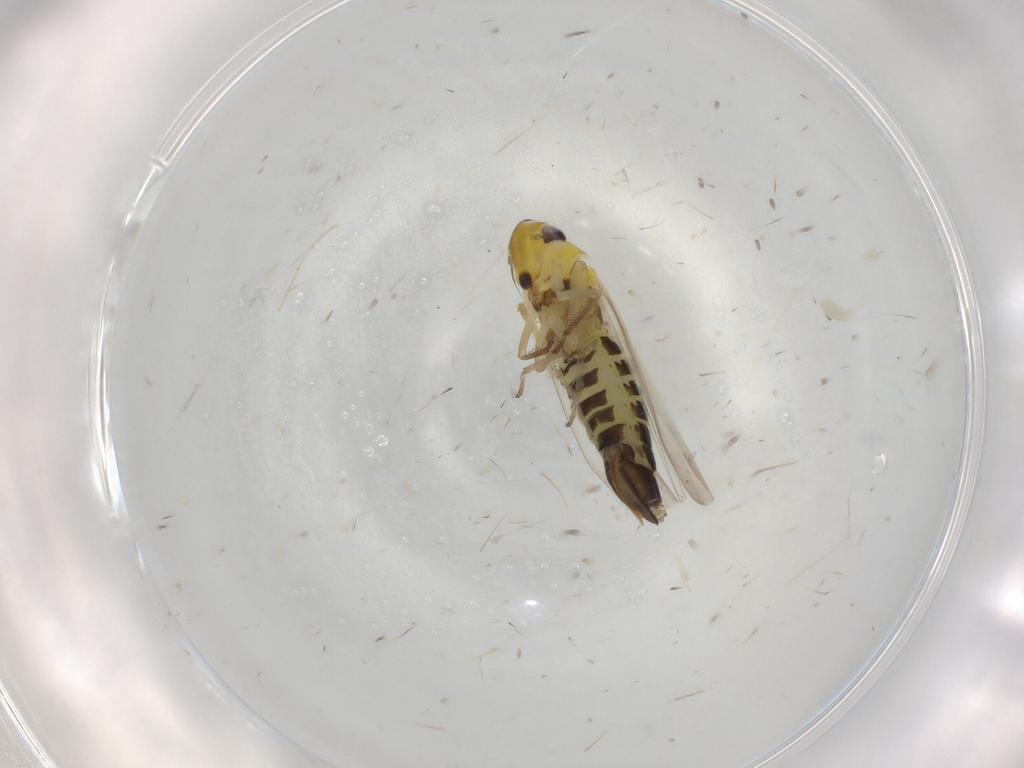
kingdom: Animalia
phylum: Arthropoda
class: Insecta
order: Hemiptera
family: Cicadellidae
